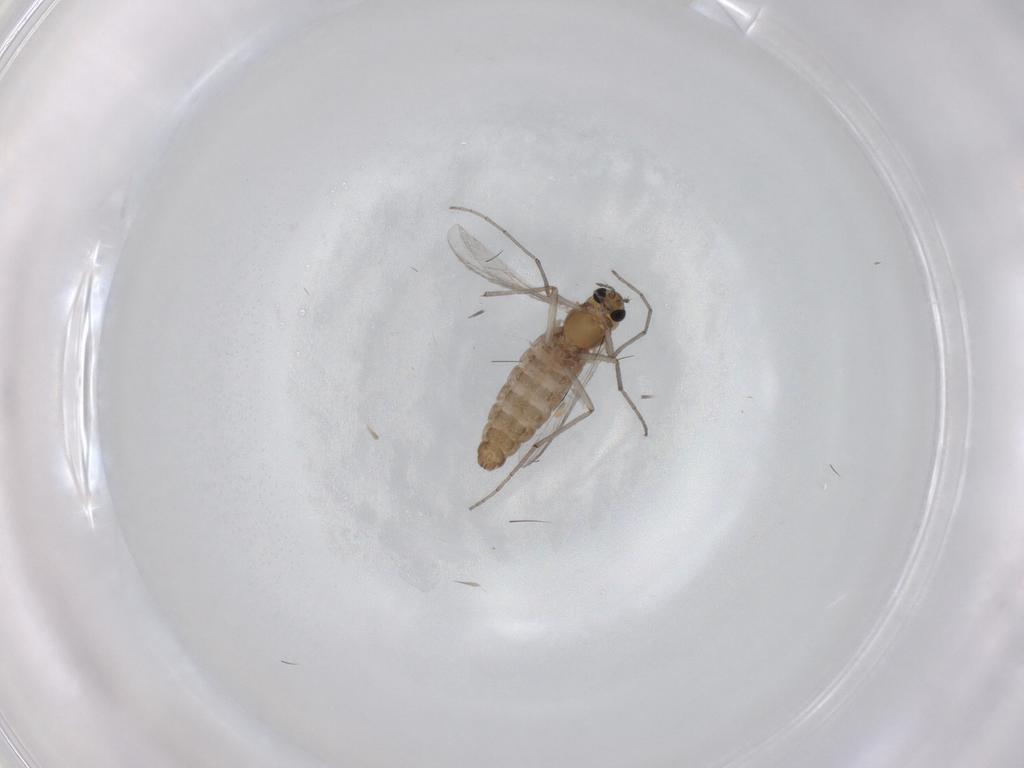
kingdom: Animalia
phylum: Arthropoda
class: Insecta
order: Diptera
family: Chironomidae
